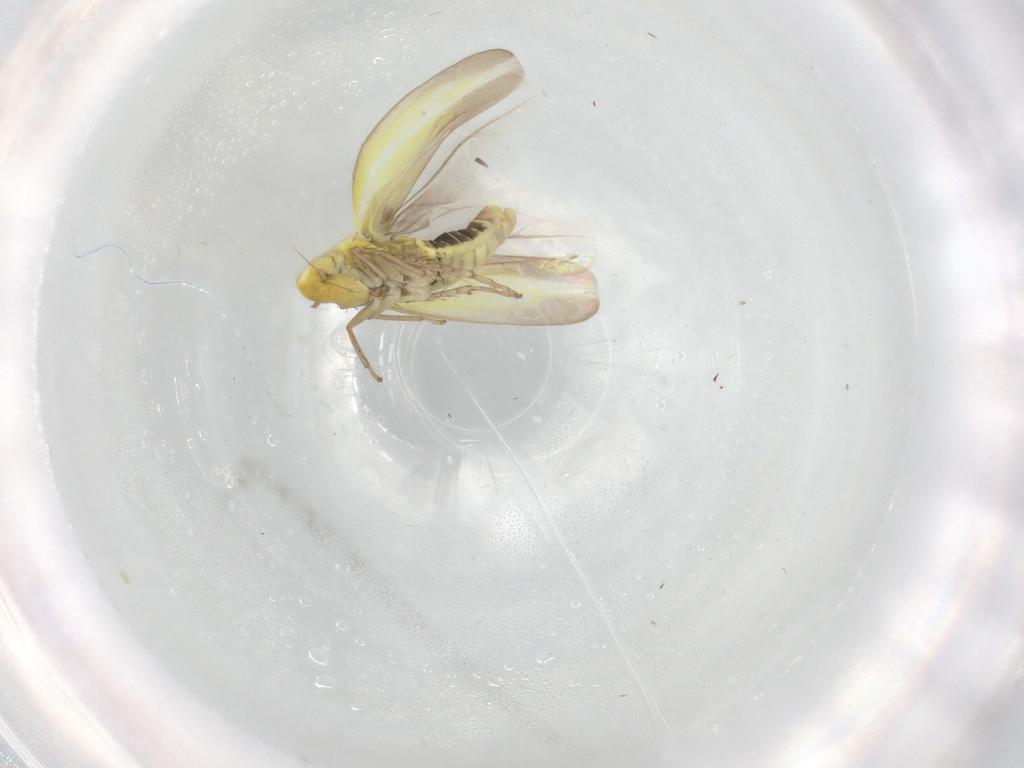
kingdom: Animalia
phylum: Arthropoda
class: Insecta
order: Hemiptera
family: Cicadellidae
